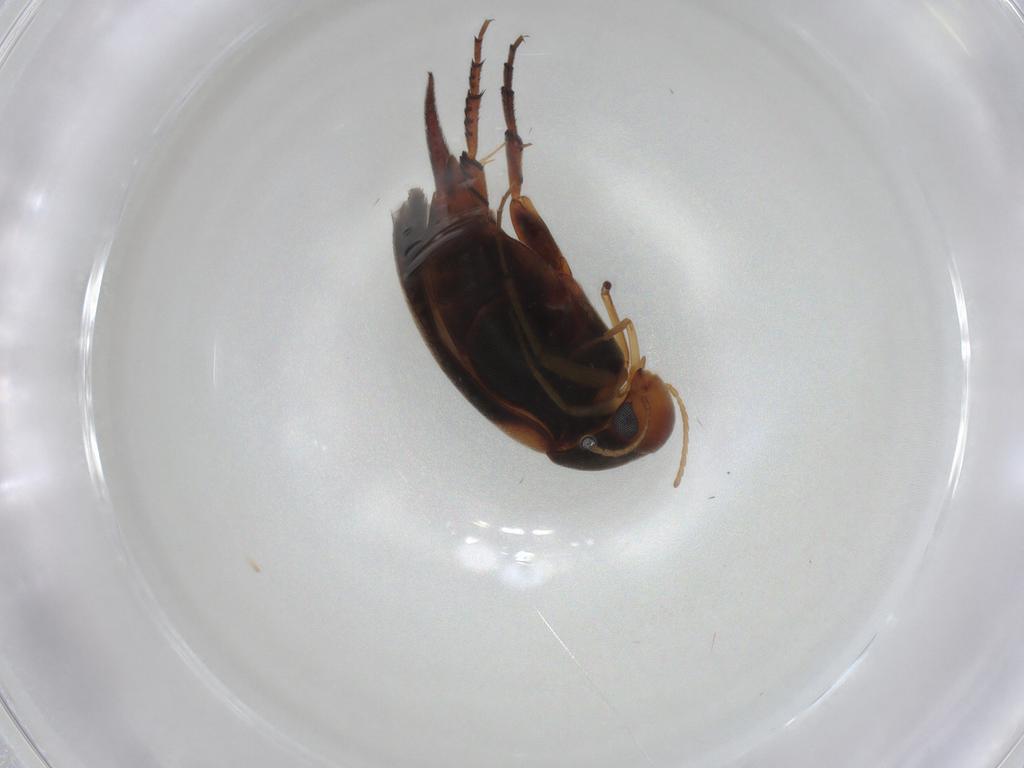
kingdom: Animalia
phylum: Arthropoda
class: Insecta
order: Coleoptera
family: Mordellidae
